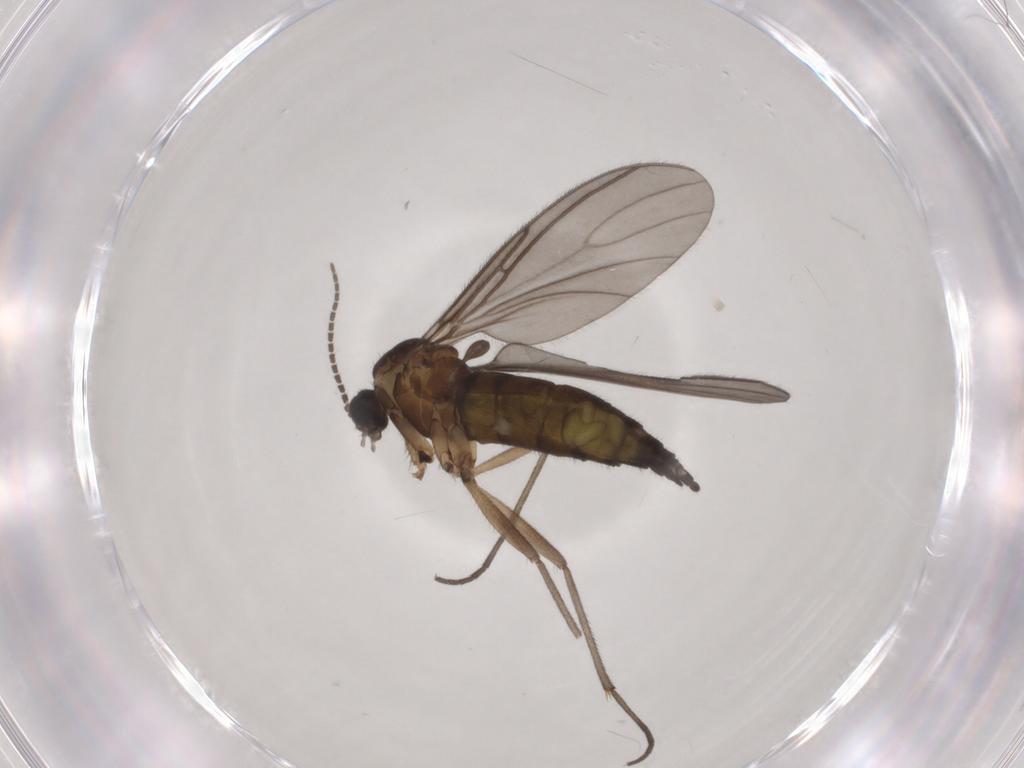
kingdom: Animalia
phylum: Arthropoda
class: Insecta
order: Diptera
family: Sciaridae
